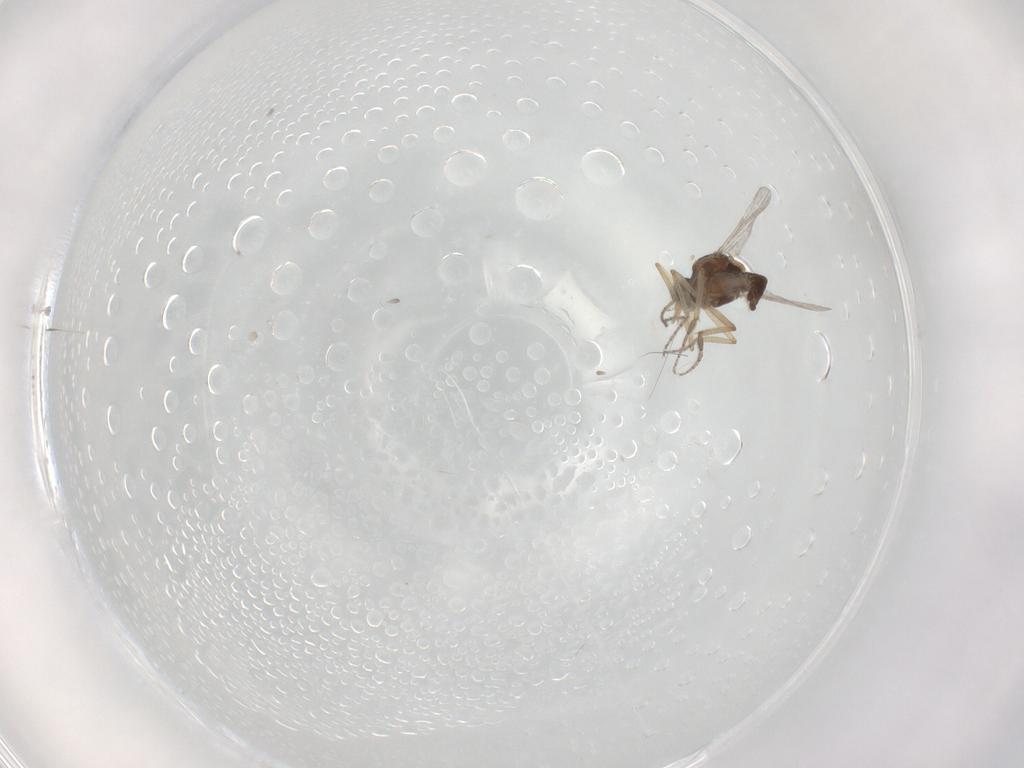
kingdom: Animalia
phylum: Arthropoda
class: Insecta
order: Diptera
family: Ceratopogonidae
